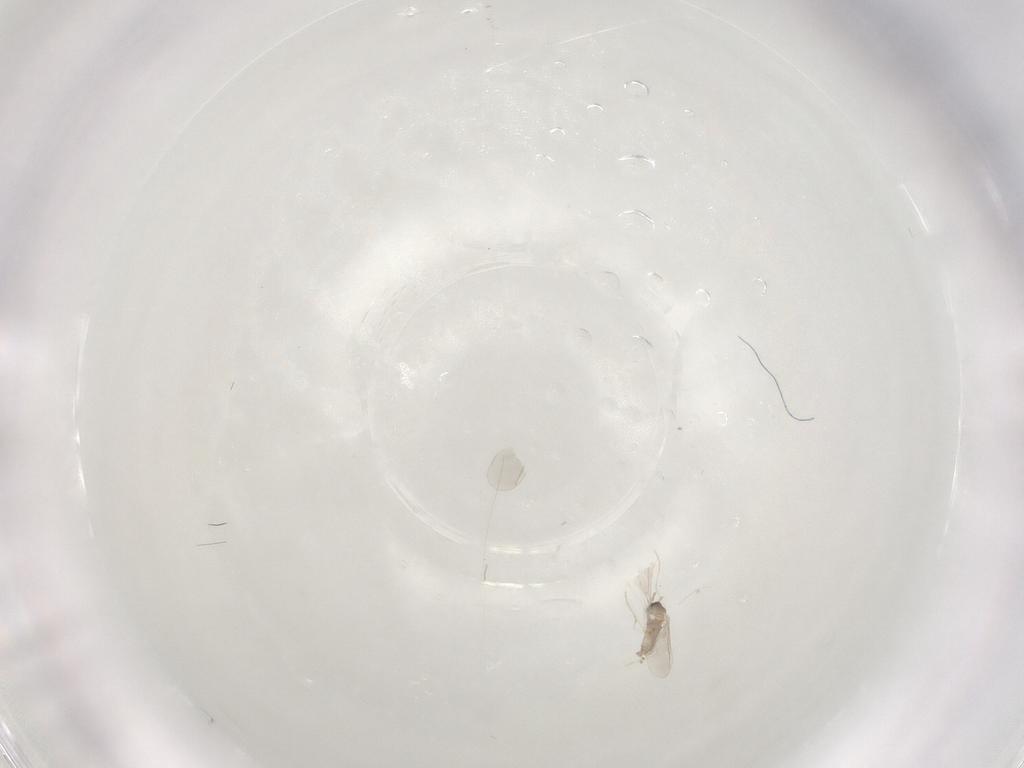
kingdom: Animalia
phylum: Arthropoda
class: Insecta
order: Diptera
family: Cecidomyiidae
